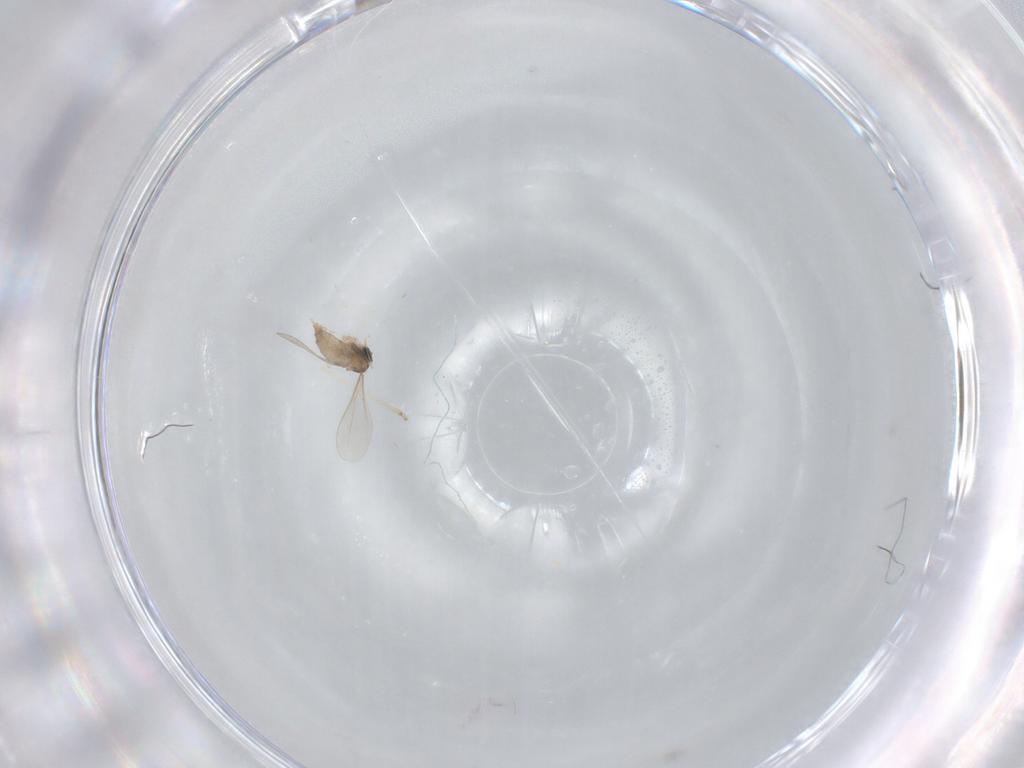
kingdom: Animalia
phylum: Arthropoda
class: Insecta
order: Diptera
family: Cecidomyiidae
